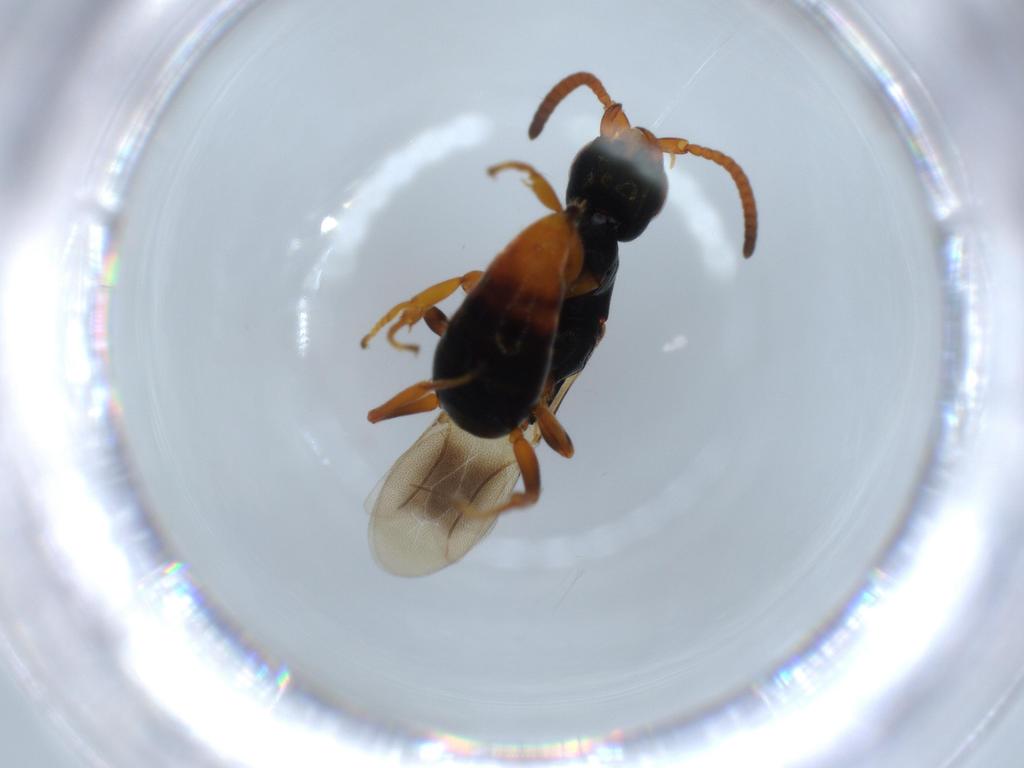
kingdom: Animalia
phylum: Arthropoda
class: Insecta
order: Hymenoptera
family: Bethylidae
